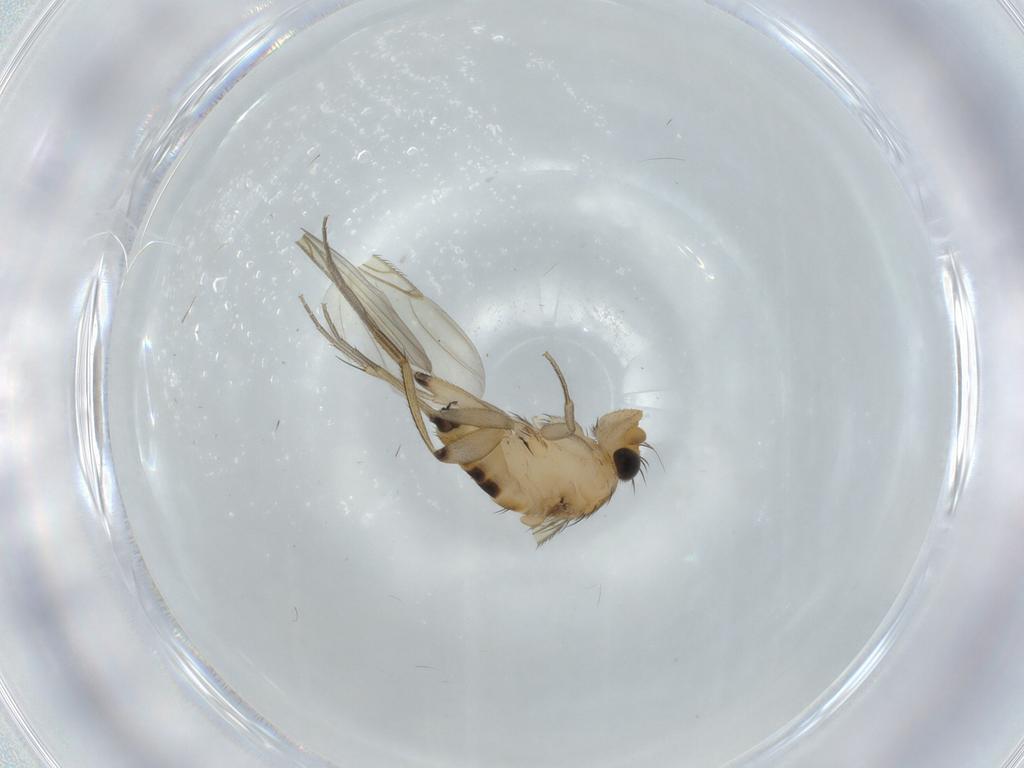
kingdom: Animalia
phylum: Arthropoda
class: Insecta
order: Diptera
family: Phoridae
